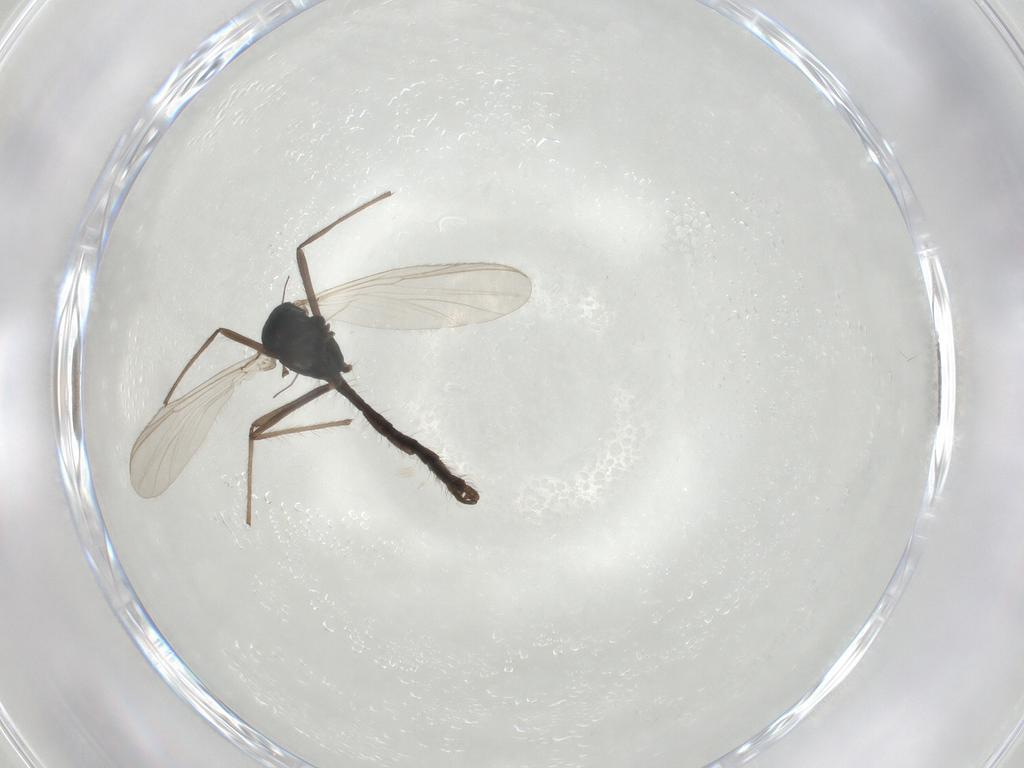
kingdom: Animalia
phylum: Arthropoda
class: Insecta
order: Diptera
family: Chironomidae
